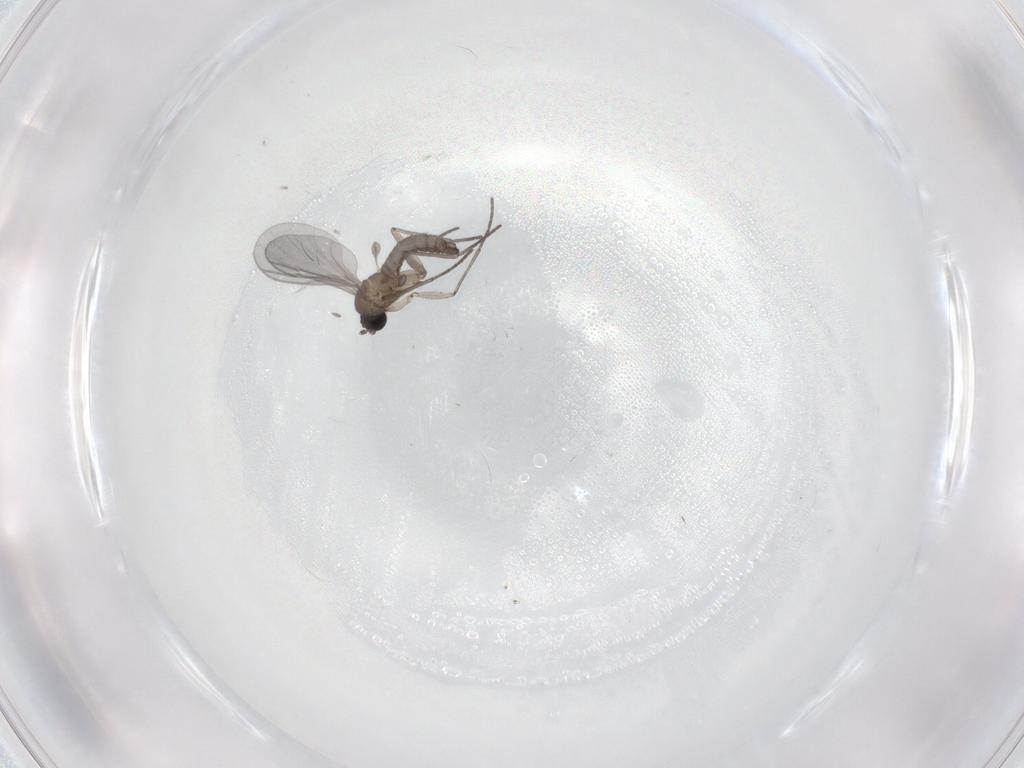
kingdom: Animalia
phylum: Arthropoda
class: Insecta
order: Diptera
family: Limoniidae
